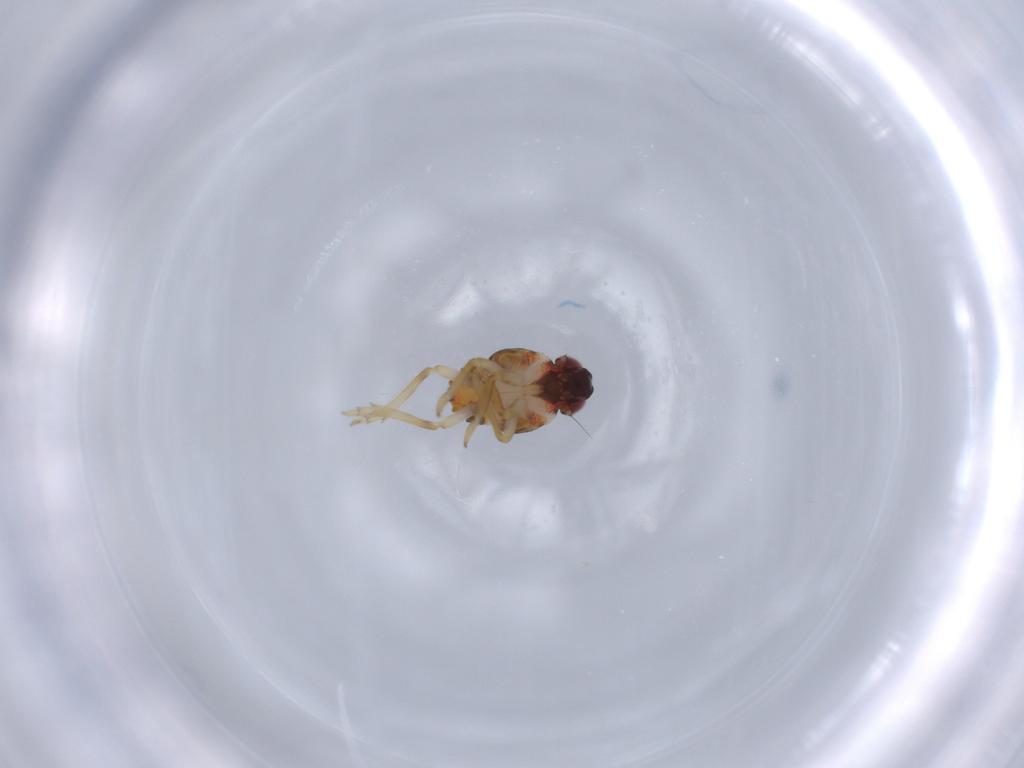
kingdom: Animalia
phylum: Arthropoda
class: Insecta
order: Hemiptera
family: Issidae
